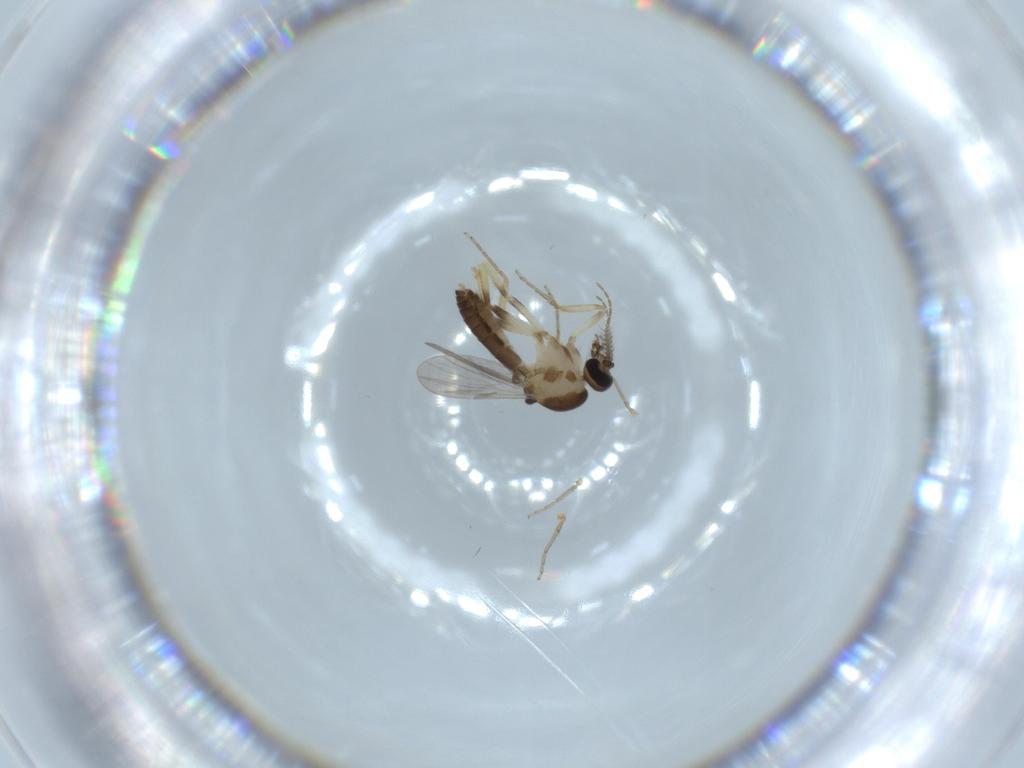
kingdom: Animalia
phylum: Arthropoda
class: Insecta
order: Diptera
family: Ceratopogonidae
